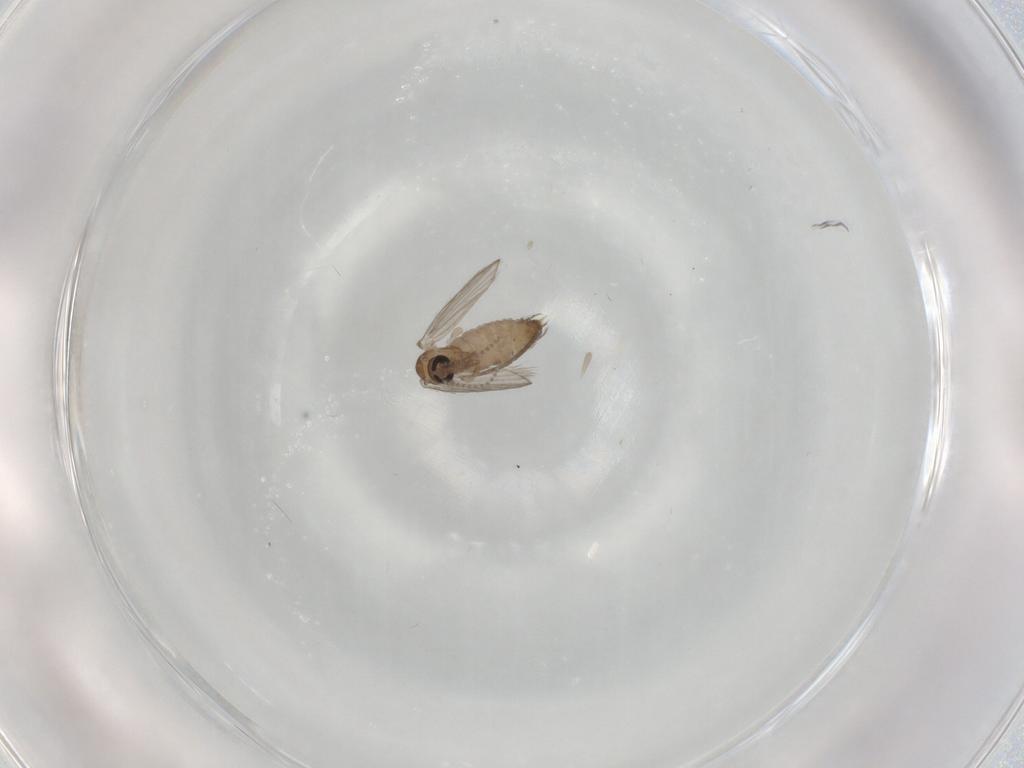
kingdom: Animalia
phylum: Arthropoda
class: Insecta
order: Diptera
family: Psychodidae
